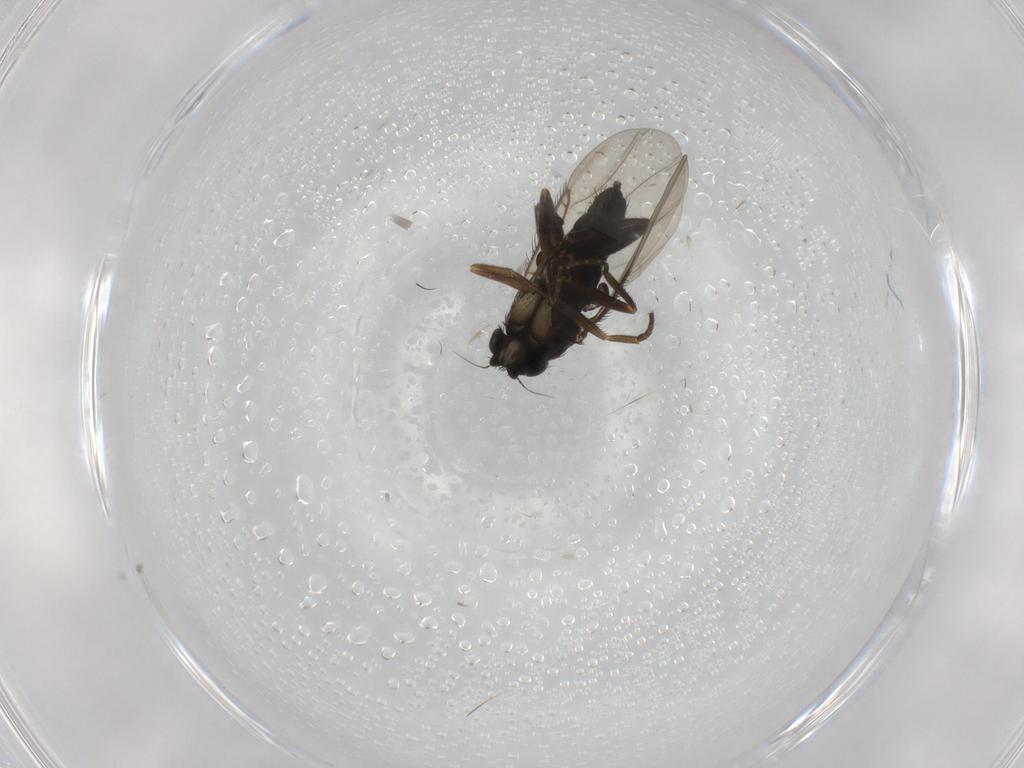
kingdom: Animalia
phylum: Arthropoda
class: Insecta
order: Diptera
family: Phoridae
